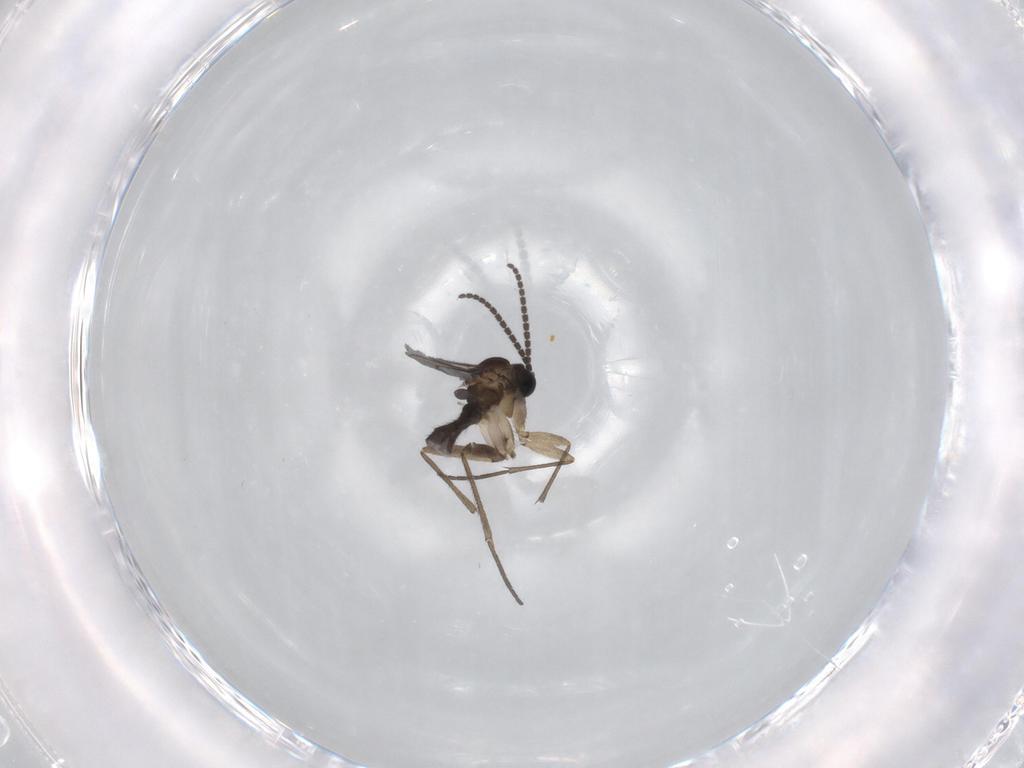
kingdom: Animalia
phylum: Arthropoda
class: Insecta
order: Diptera
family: Sciaridae
